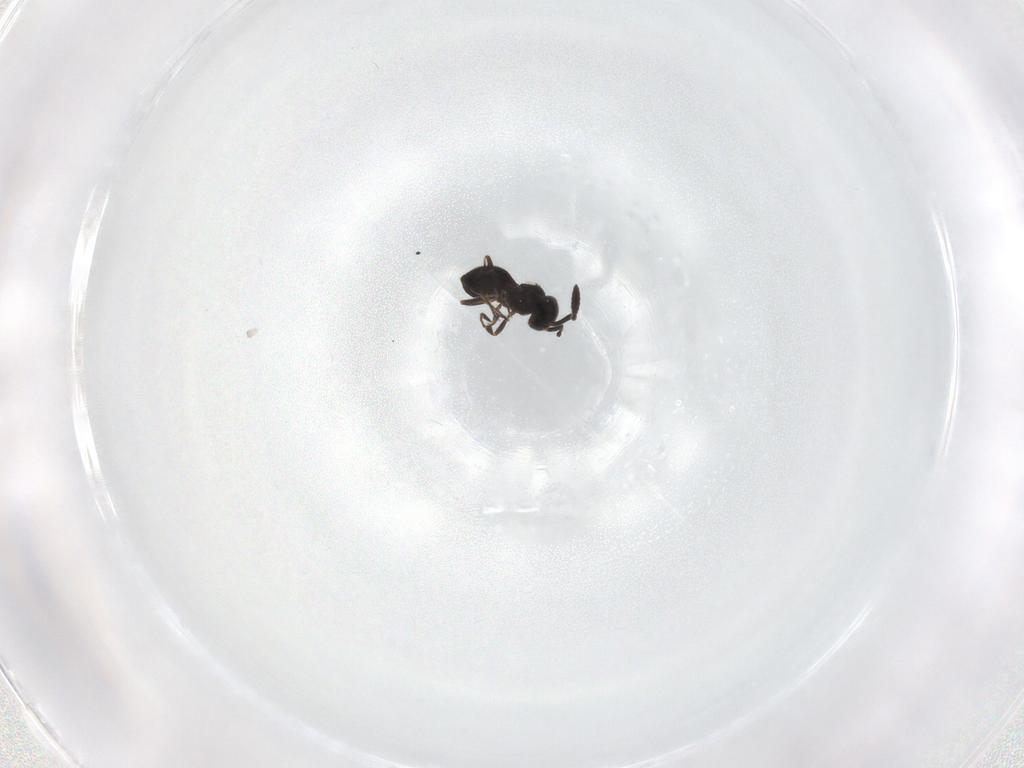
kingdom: Animalia
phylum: Arthropoda
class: Insecta
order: Hymenoptera
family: Scelionidae
